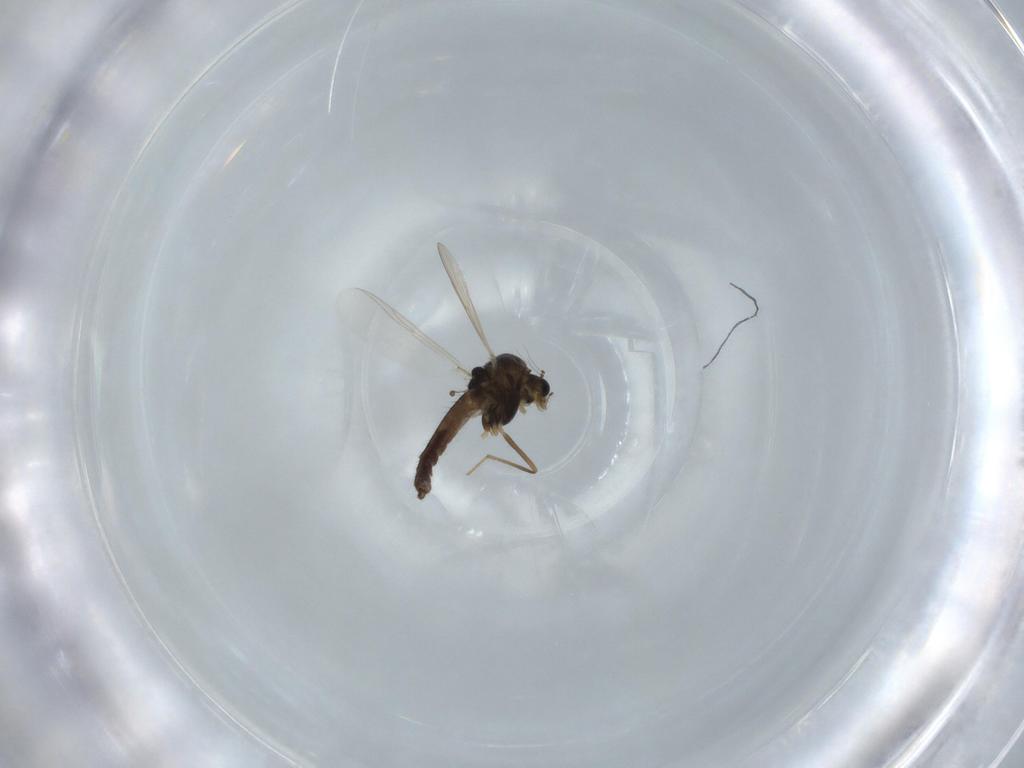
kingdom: Animalia
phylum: Arthropoda
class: Insecta
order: Diptera
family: Chironomidae
